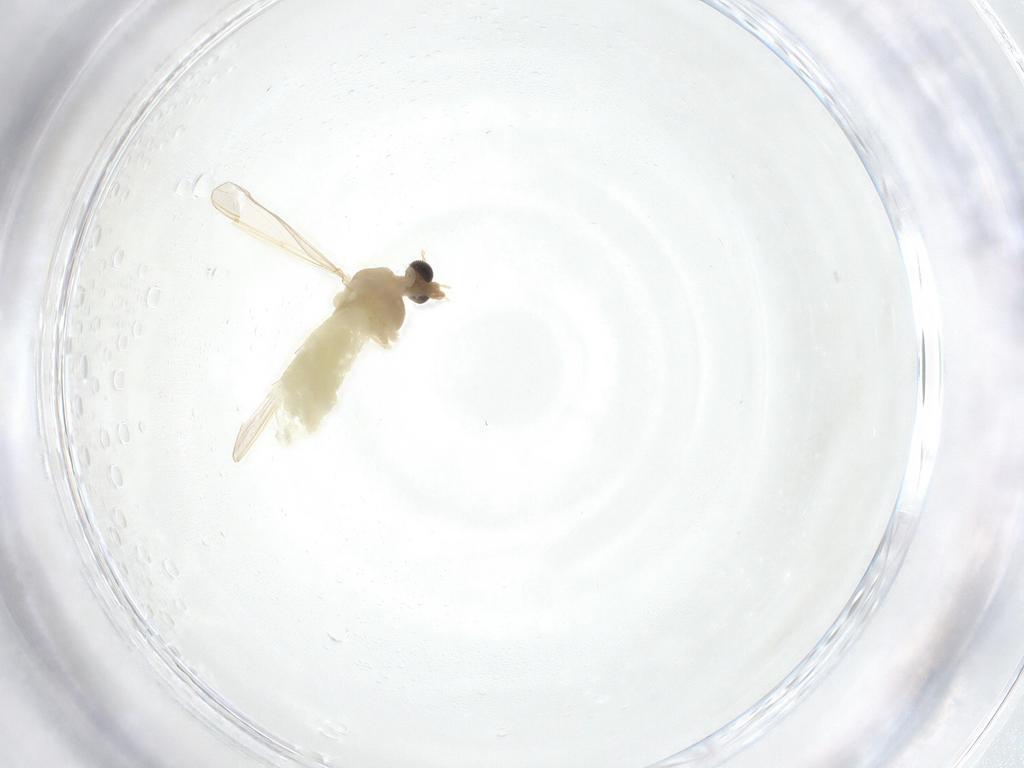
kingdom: Animalia
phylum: Arthropoda
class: Insecta
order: Diptera
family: Chironomidae
